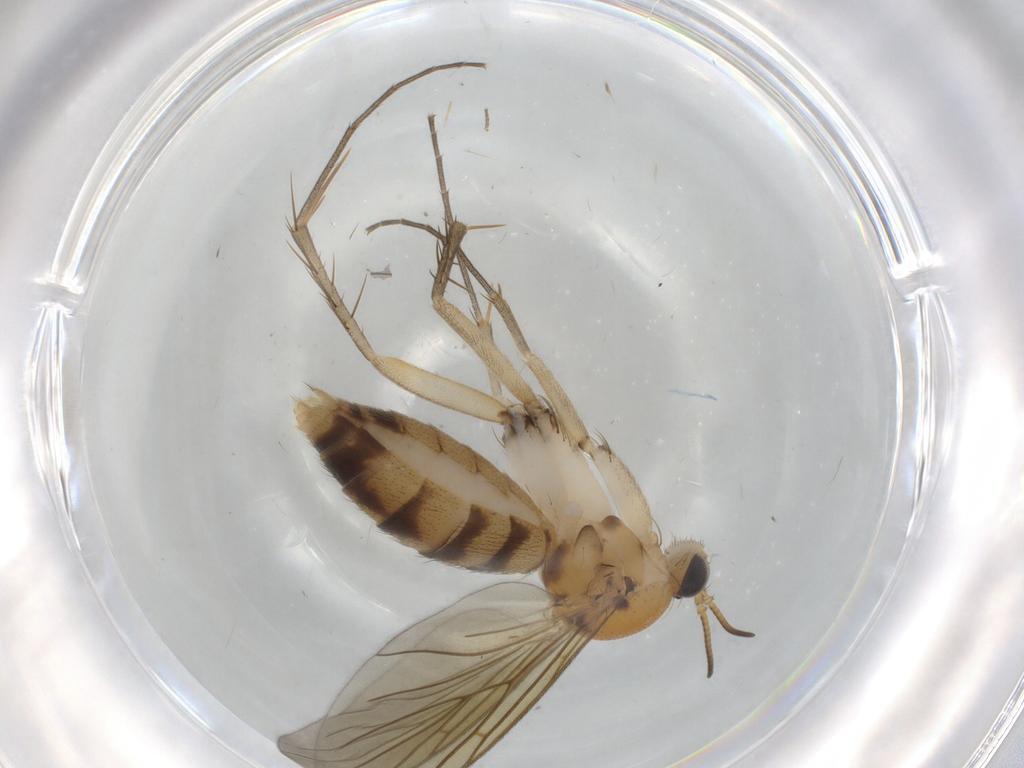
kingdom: Animalia
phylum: Arthropoda
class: Insecta
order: Diptera
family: Mycetophilidae
